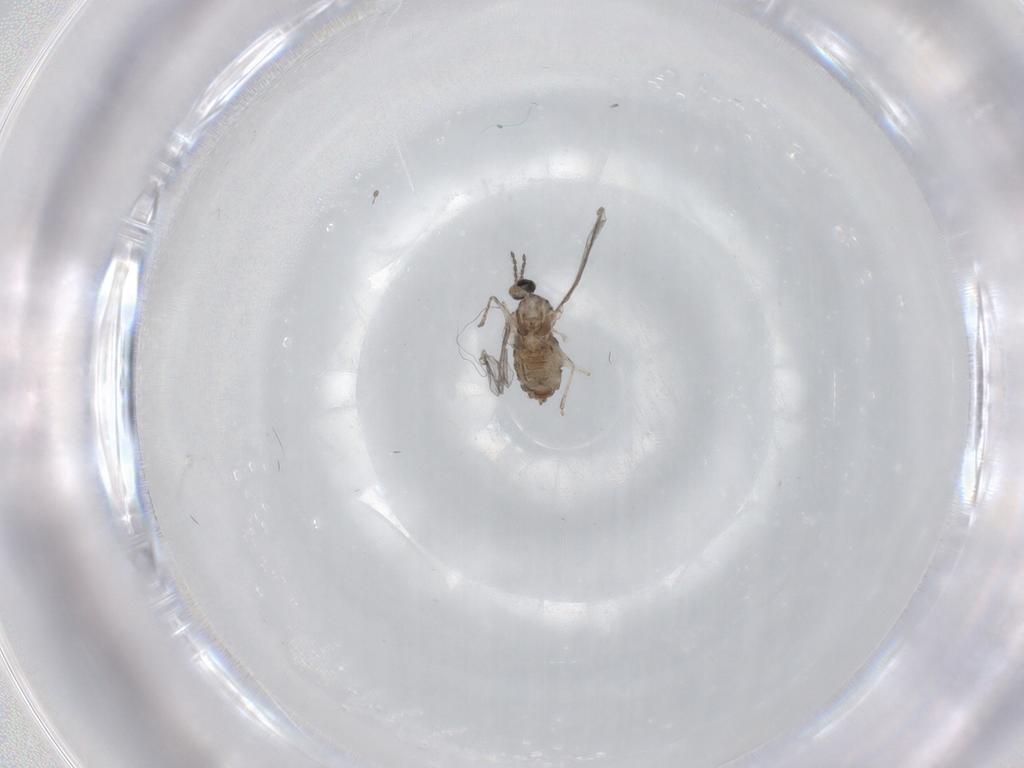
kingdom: Animalia
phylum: Arthropoda
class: Insecta
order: Diptera
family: Cecidomyiidae
